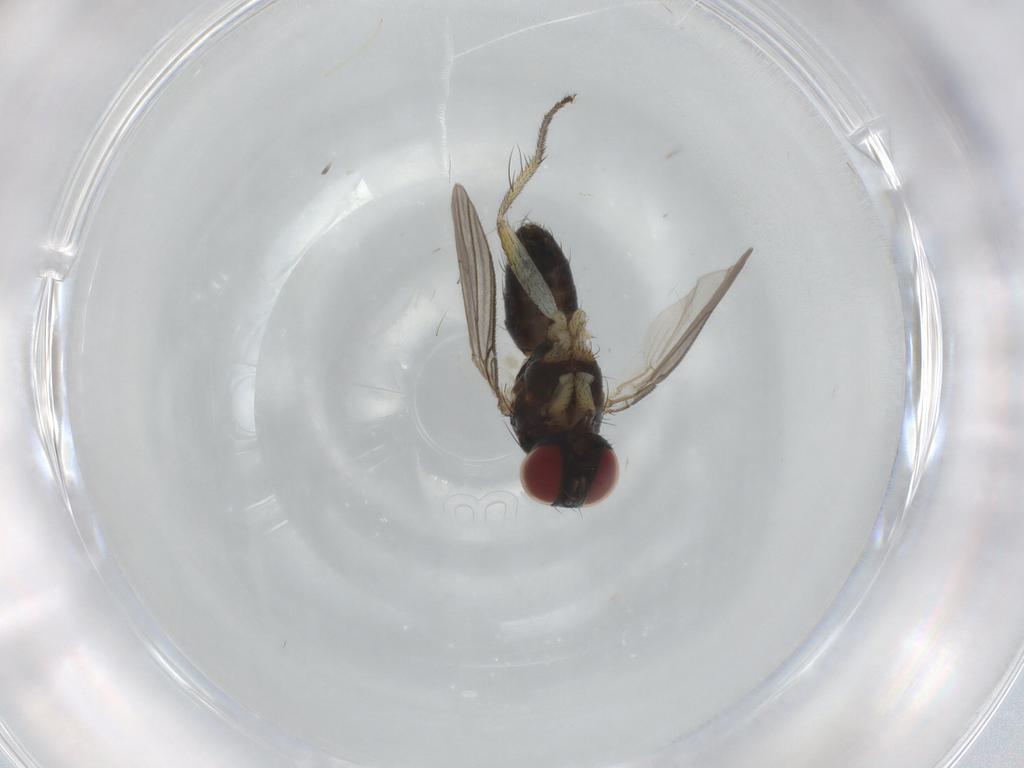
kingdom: Animalia
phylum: Arthropoda
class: Insecta
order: Diptera
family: Muscidae
